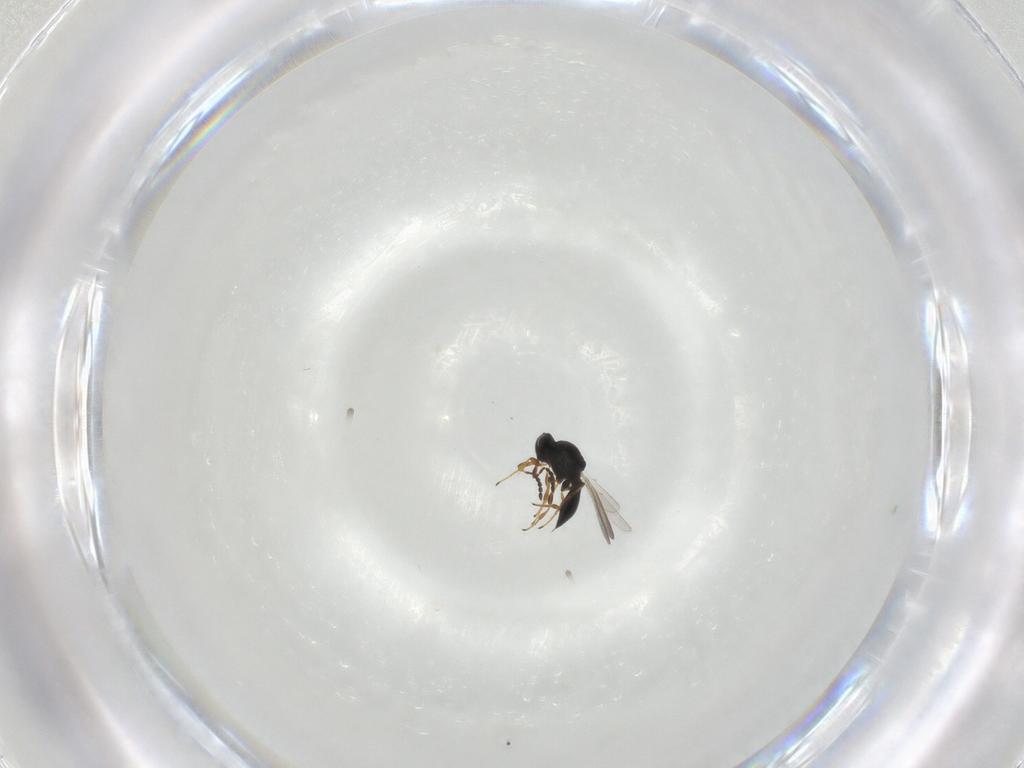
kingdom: Animalia
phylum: Arthropoda
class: Insecta
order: Hymenoptera
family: Platygastridae
